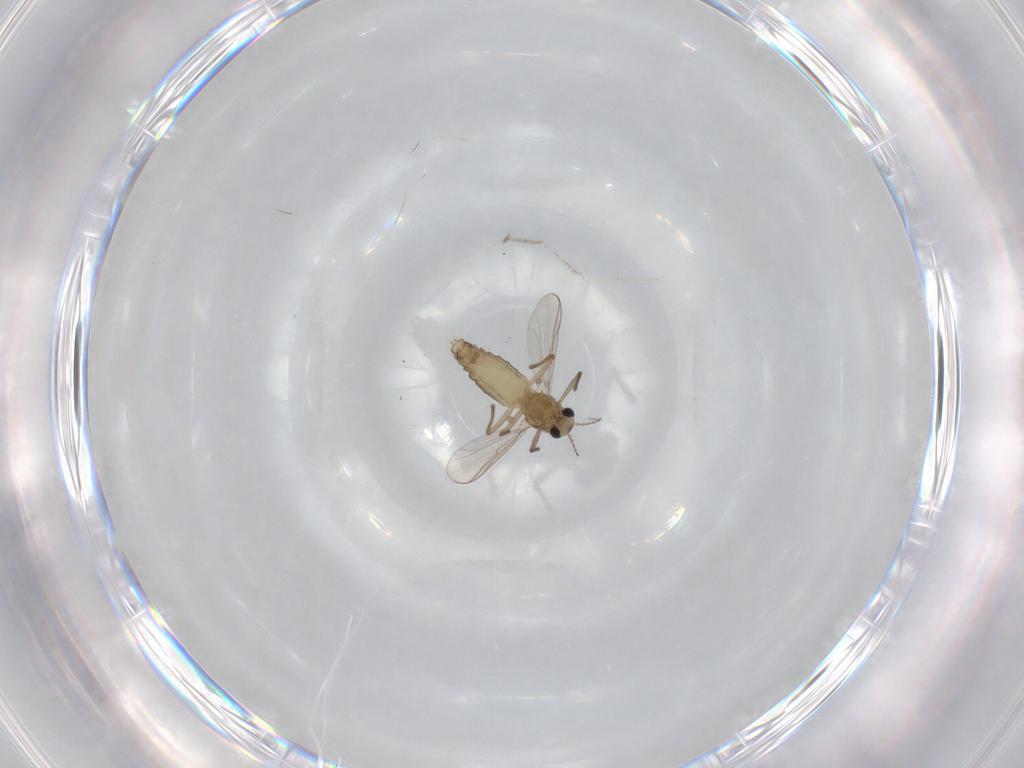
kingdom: Animalia
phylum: Arthropoda
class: Insecta
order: Diptera
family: Chironomidae
